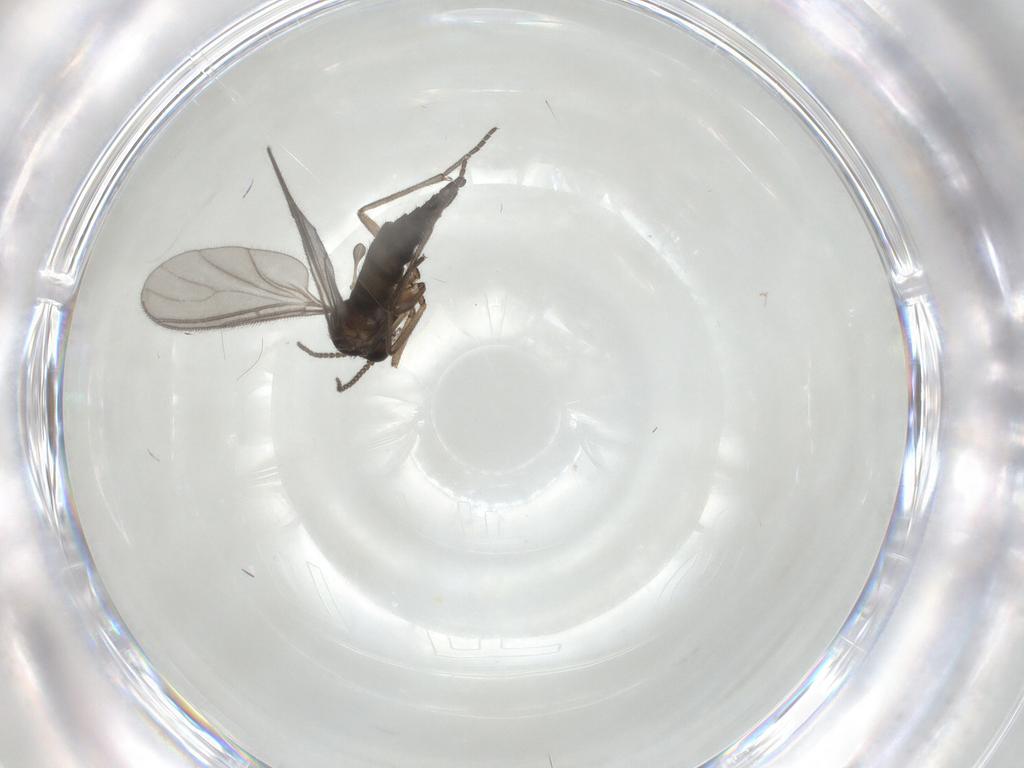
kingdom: Animalia
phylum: Arthropoda
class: Insecta
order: Diptera
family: Sciaridae
